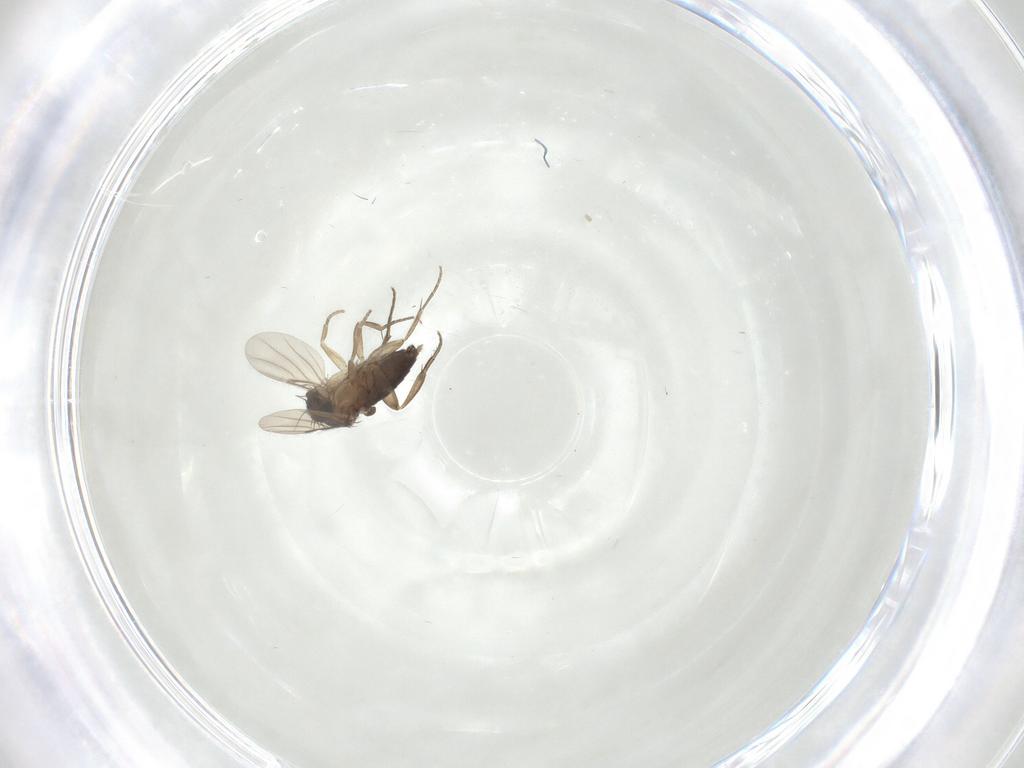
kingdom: Animalia
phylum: Arthropoda
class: Insecta
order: Diptera
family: Phoridae
